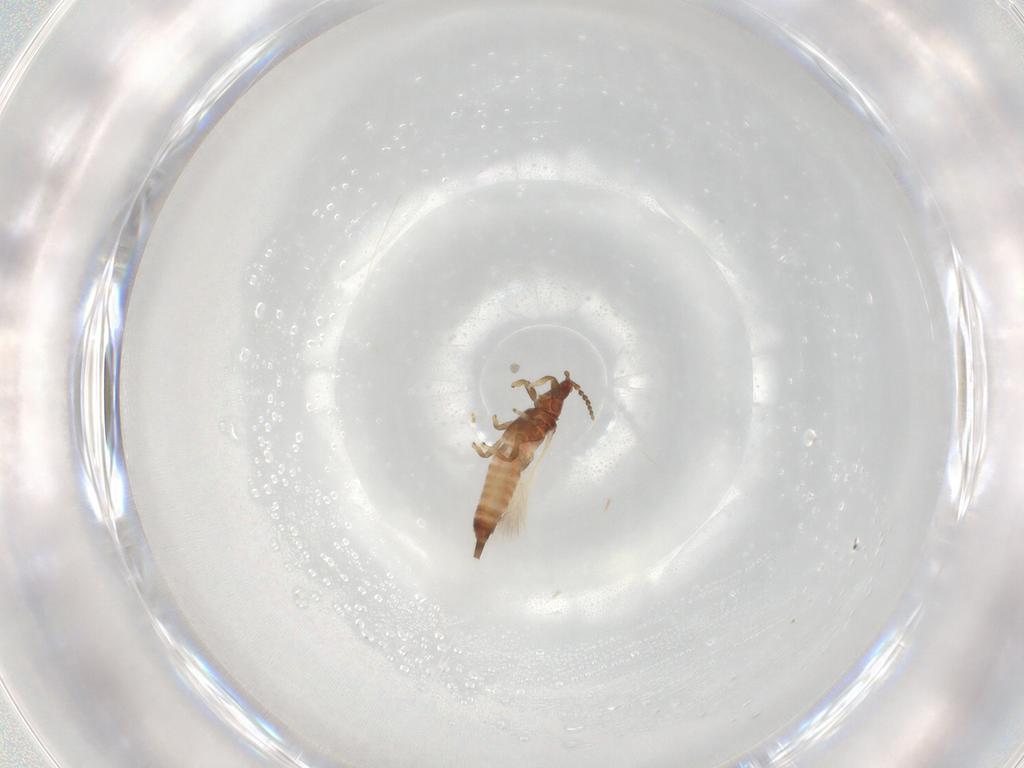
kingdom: Animalia
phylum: Arthropoda
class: Insecta
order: Thysanoptera
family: Phlaeothripidae
